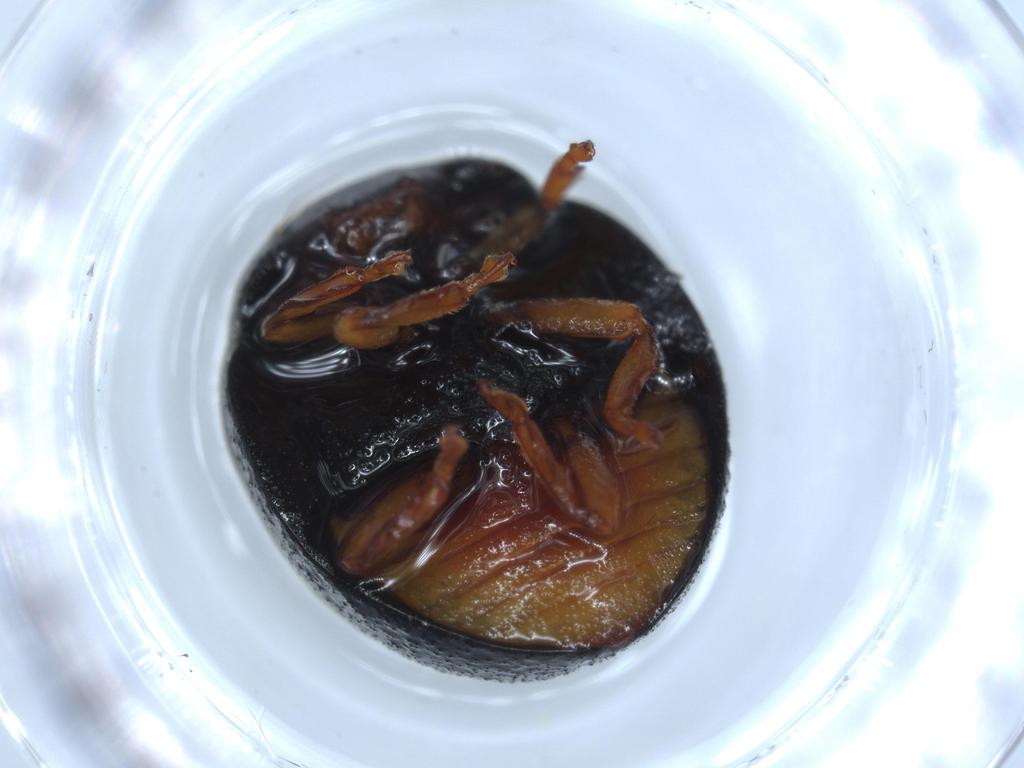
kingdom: Animalia
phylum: Arthropoda
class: Insecta
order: Coleoptera
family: Coccinellidae
